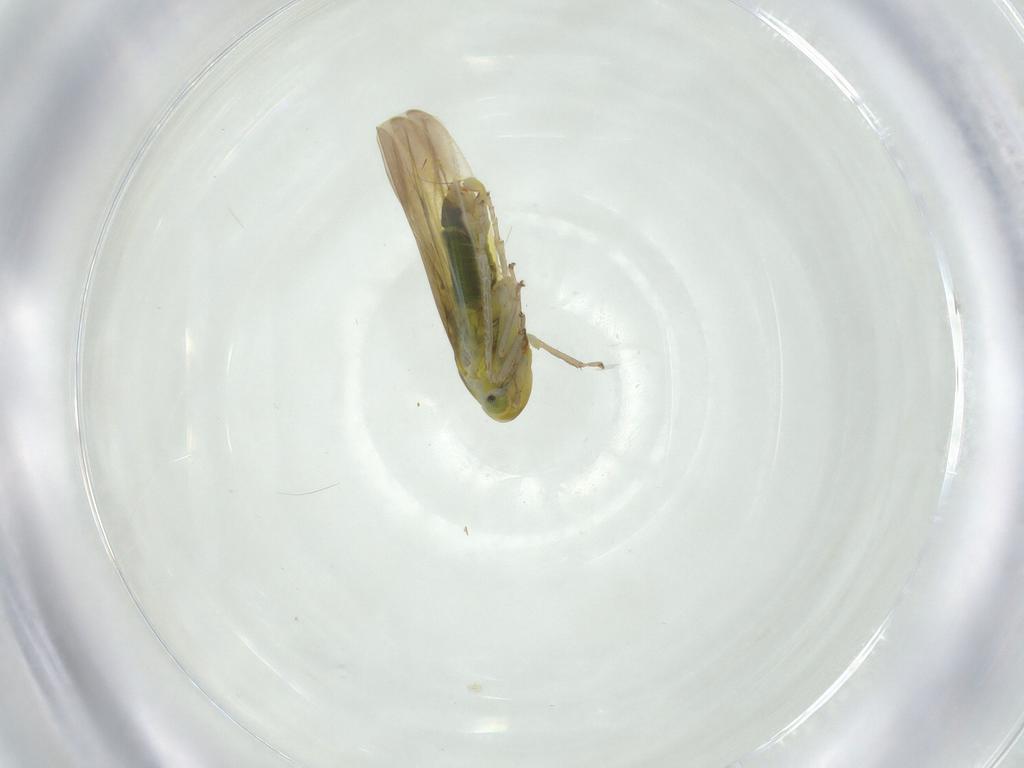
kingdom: Animalia
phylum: Arthropoda
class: Insecta
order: Hemiptera
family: Cicadellidae
